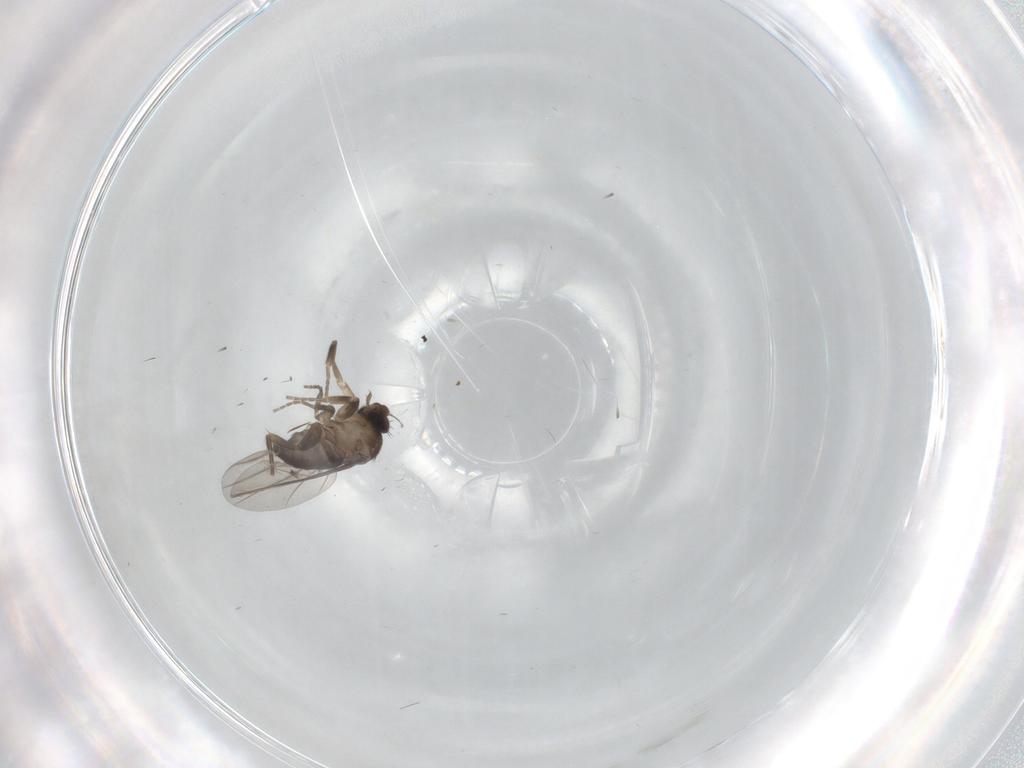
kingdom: Animalia
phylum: Arthropoda
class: Insecta
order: Diptera
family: Phoridae
